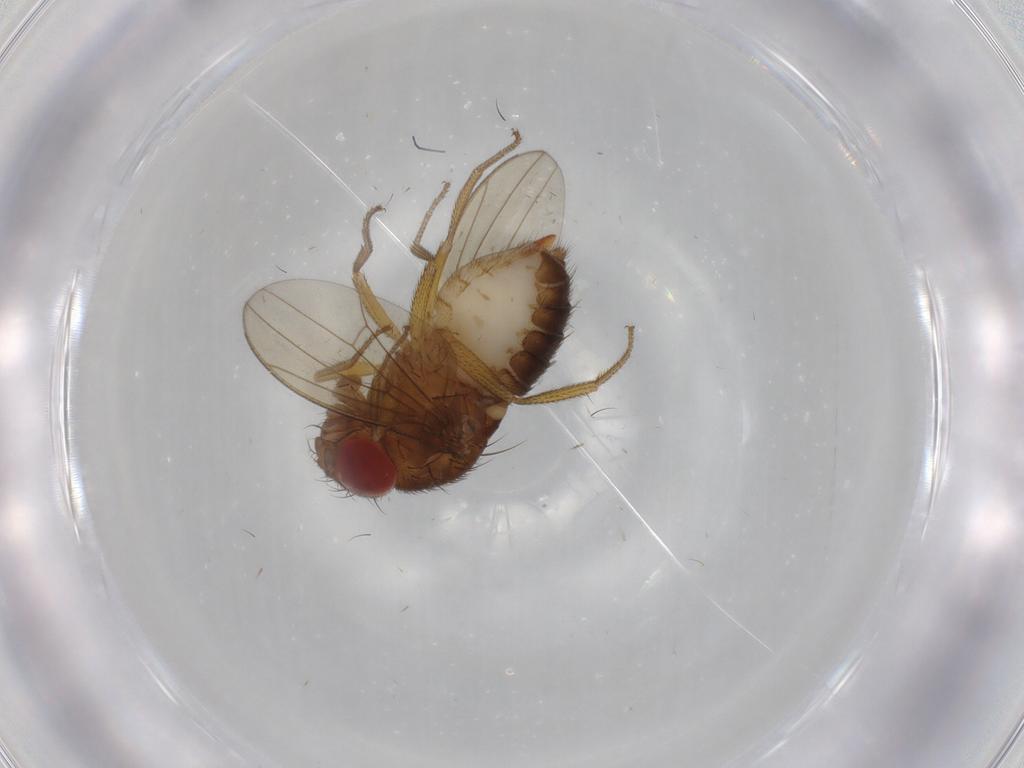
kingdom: Animalia
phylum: Arthropoda
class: Insecta
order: Diptera
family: Agromyzidae
